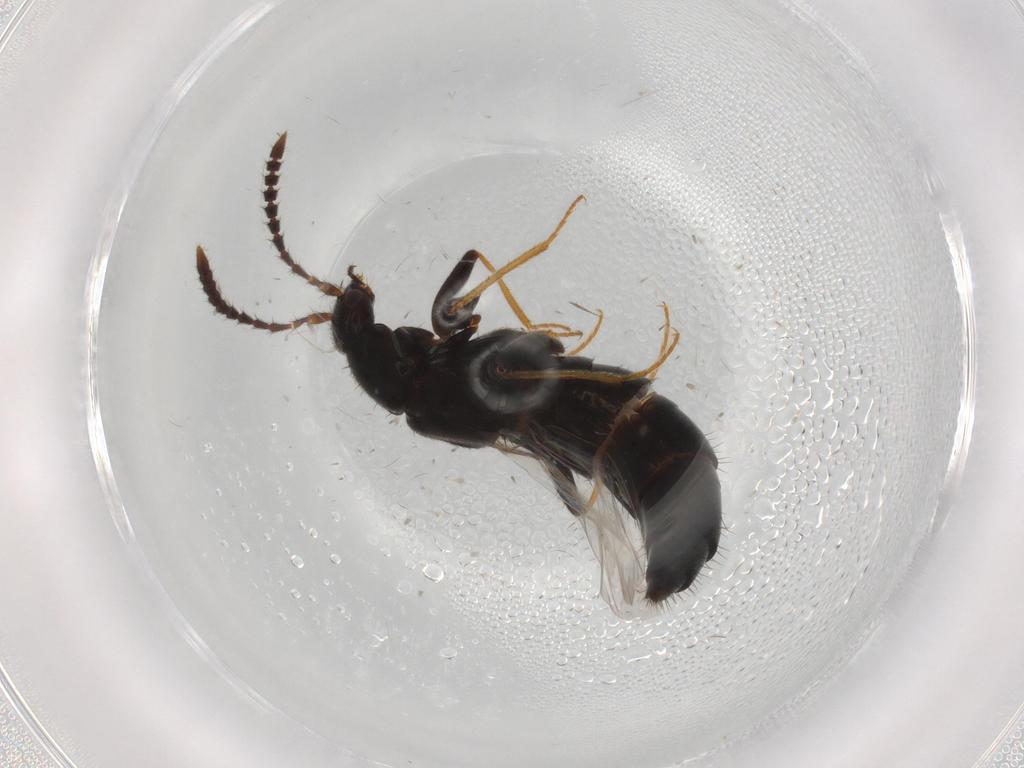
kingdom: Animalia
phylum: Arthropoda
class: Insecta
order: Coleoptera
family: Staphylinidae
